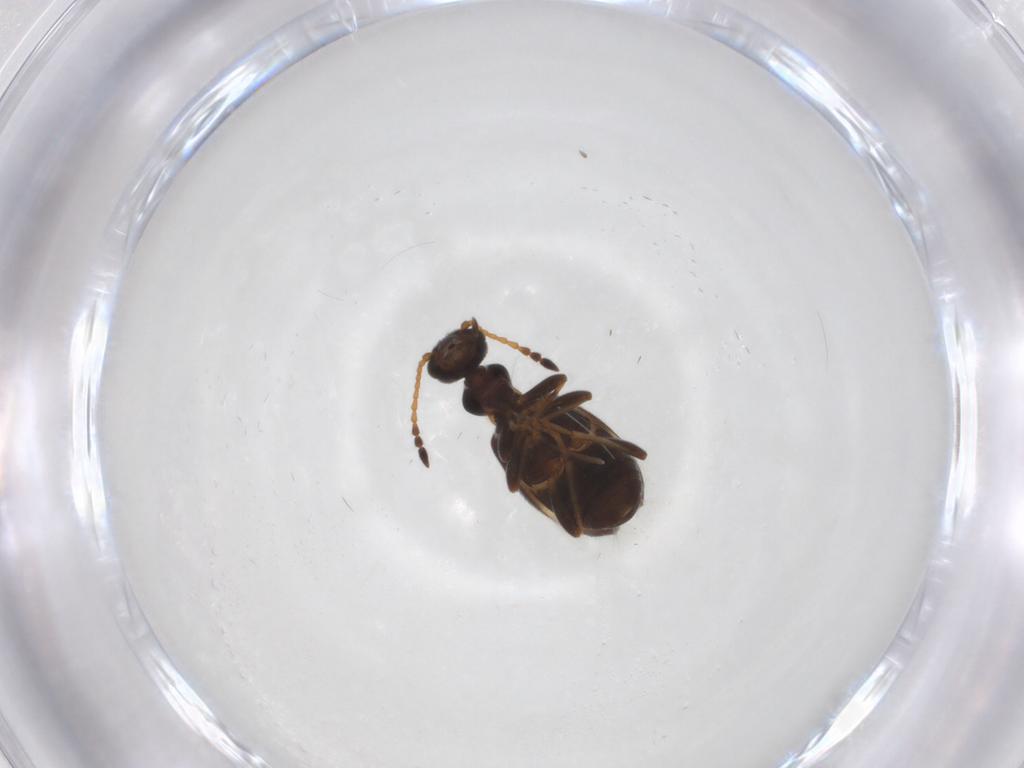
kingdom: Animalia
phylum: Arthropoda
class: Insecta
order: Coleoptera
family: Anthicidae
